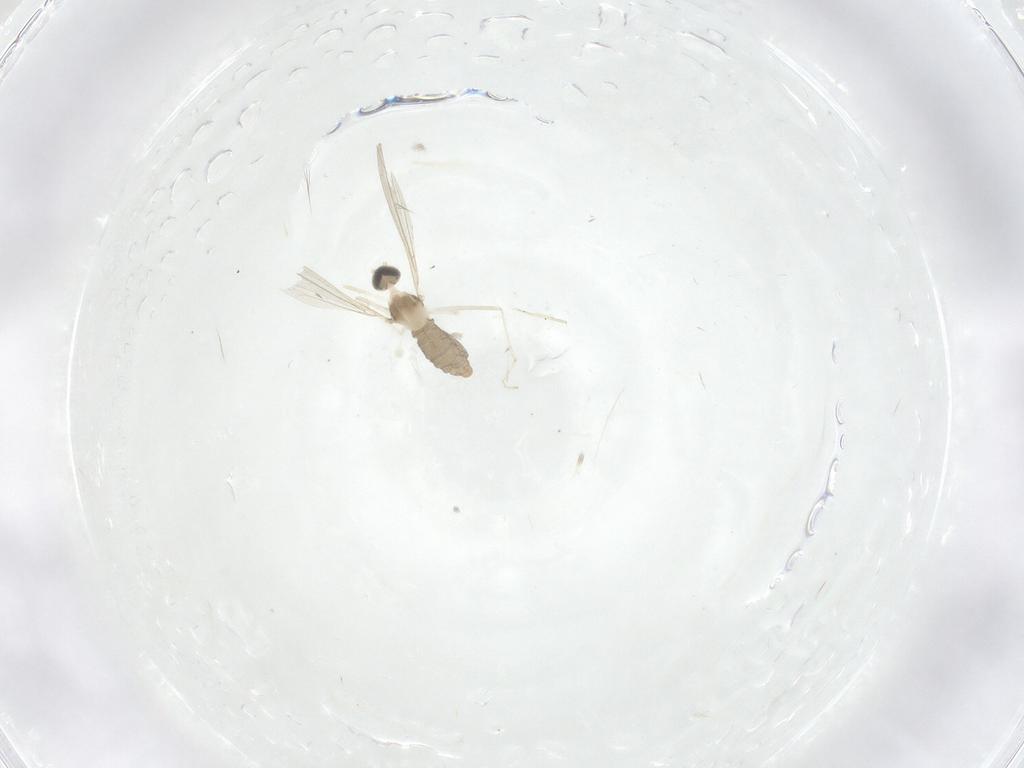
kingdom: Animalia
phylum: Arthropoda
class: Insecta
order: Diptera
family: Cecidomyiidae
